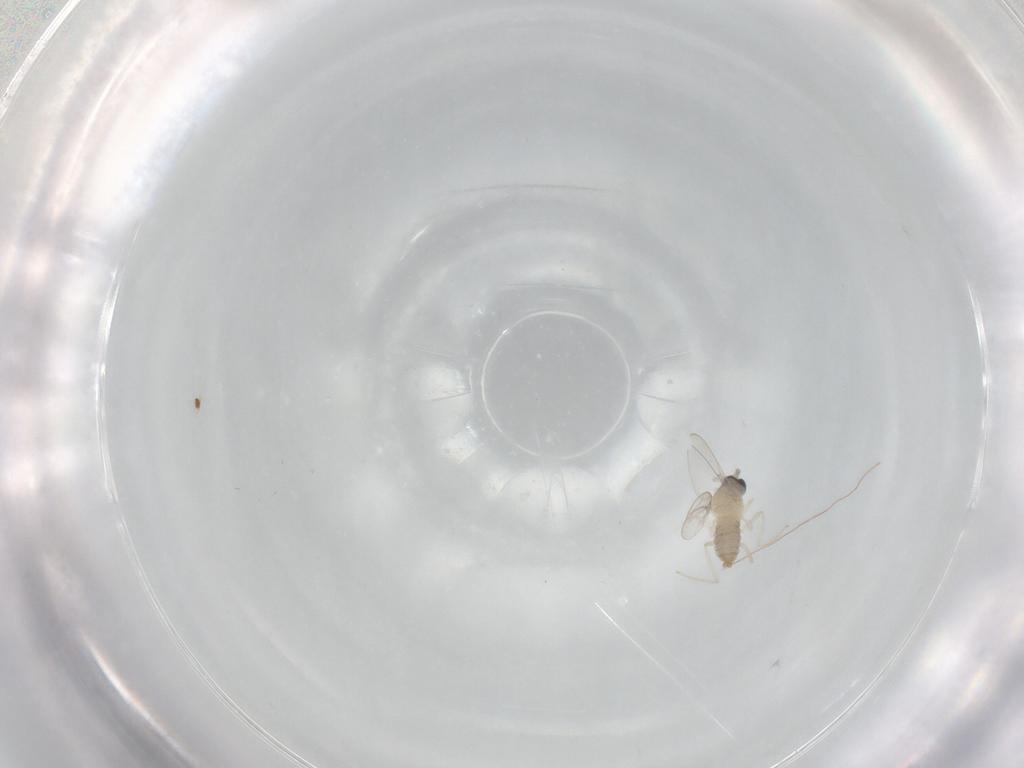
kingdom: Animalia
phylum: Arthropoda
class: Insecta
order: Diptera
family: Cecidomyiidae
